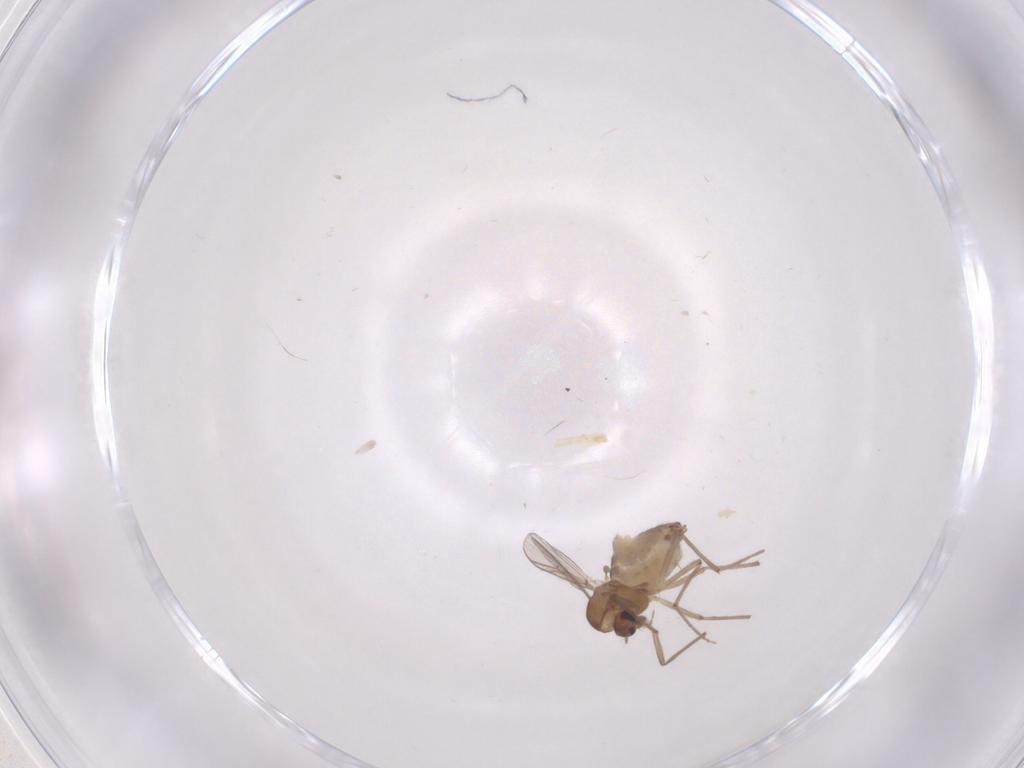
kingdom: Animalia
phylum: Arthropoda
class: Insecta
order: Diptera
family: Chironomidae
